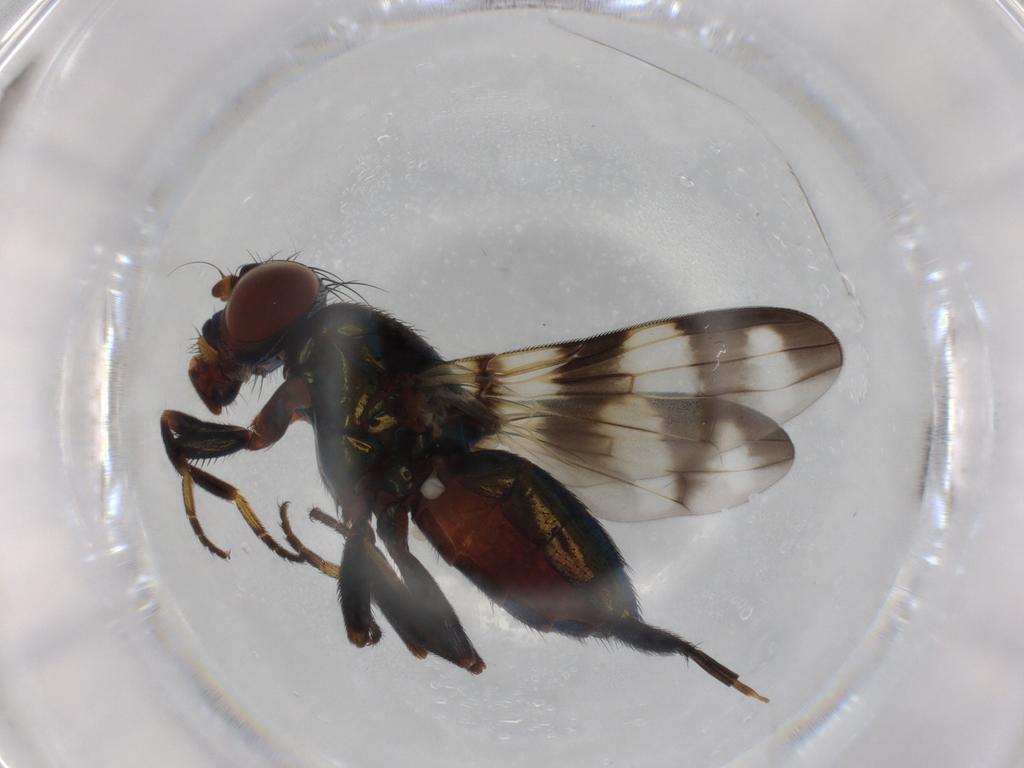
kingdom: Animalia
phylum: Arthropoda
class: Insecta
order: Diptera
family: Ulidiidae
